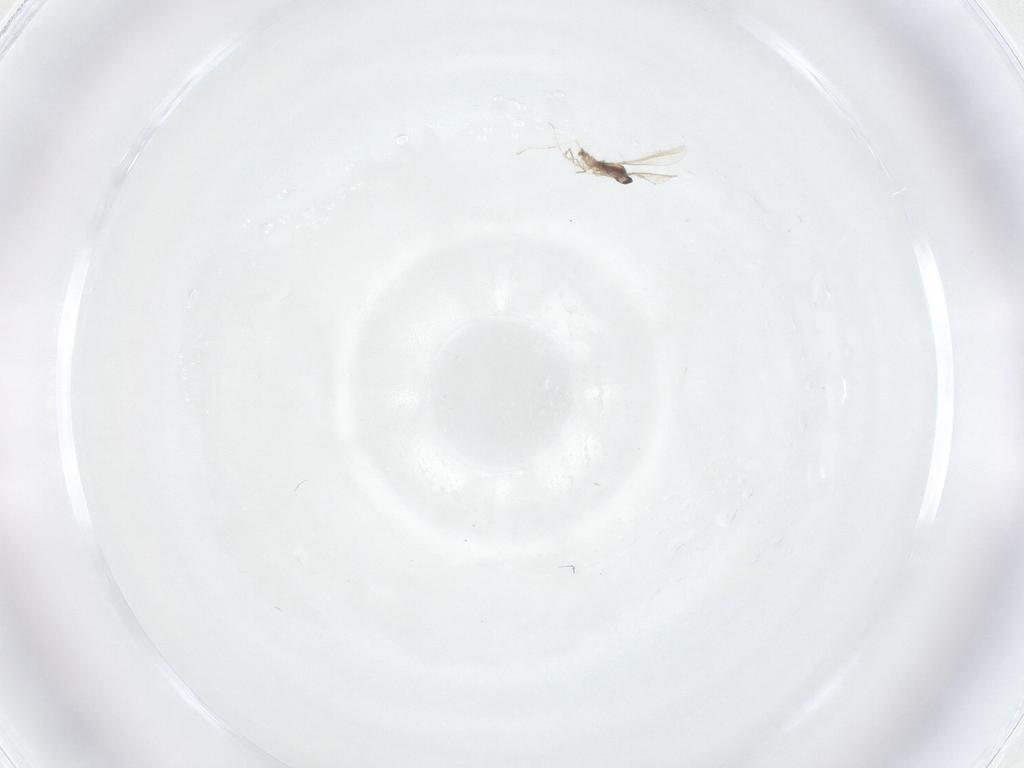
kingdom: Animalia
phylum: Arthropoda
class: Insecta
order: Diptera
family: Cecidomyiidae
